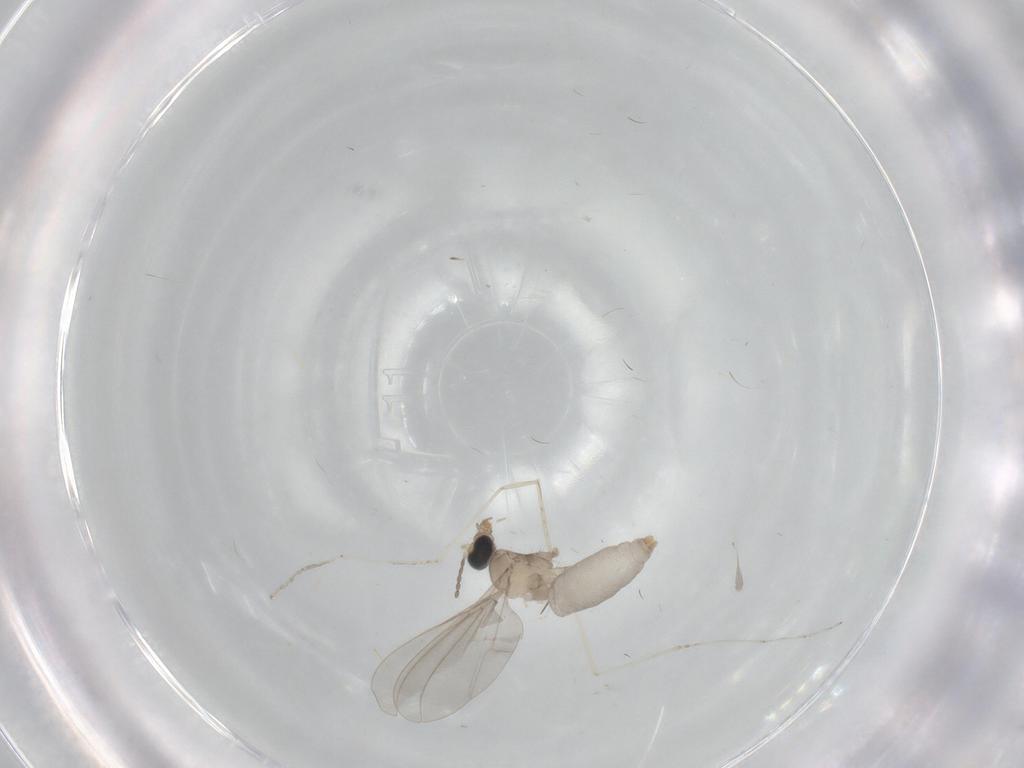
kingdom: Animalia
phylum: Arthropoda
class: Insecta
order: Diptera
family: Cecidomyiidae
